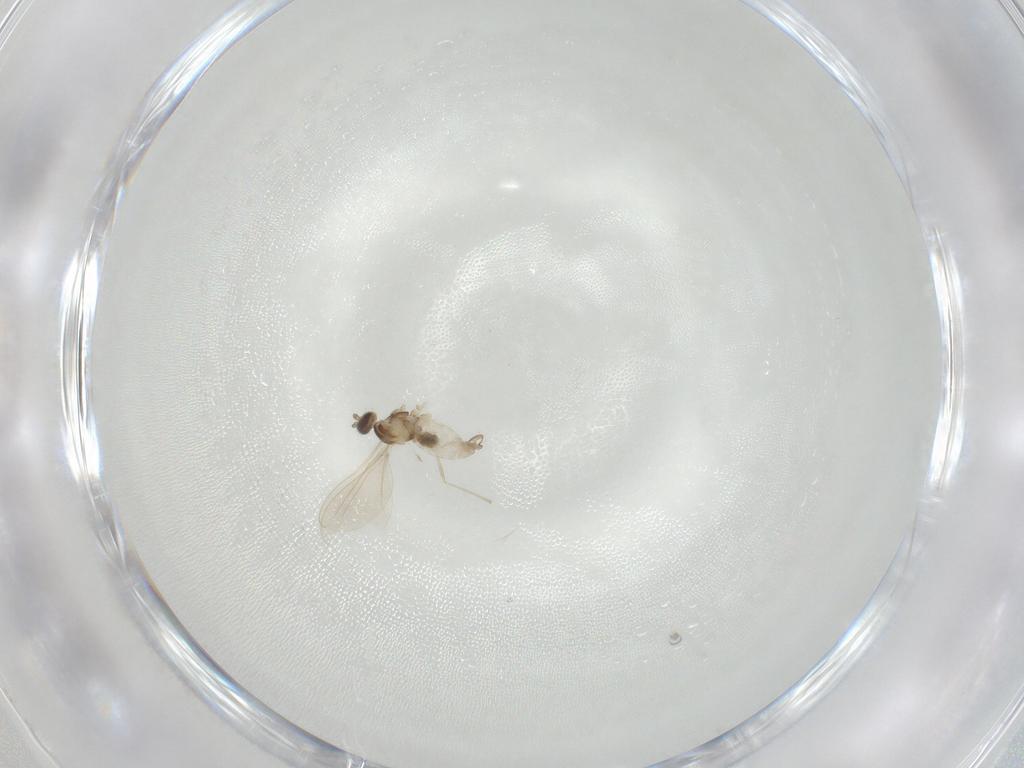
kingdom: Animalia
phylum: Arthropoda
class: Insecta
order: Diptera
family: Cecidomyiidae
